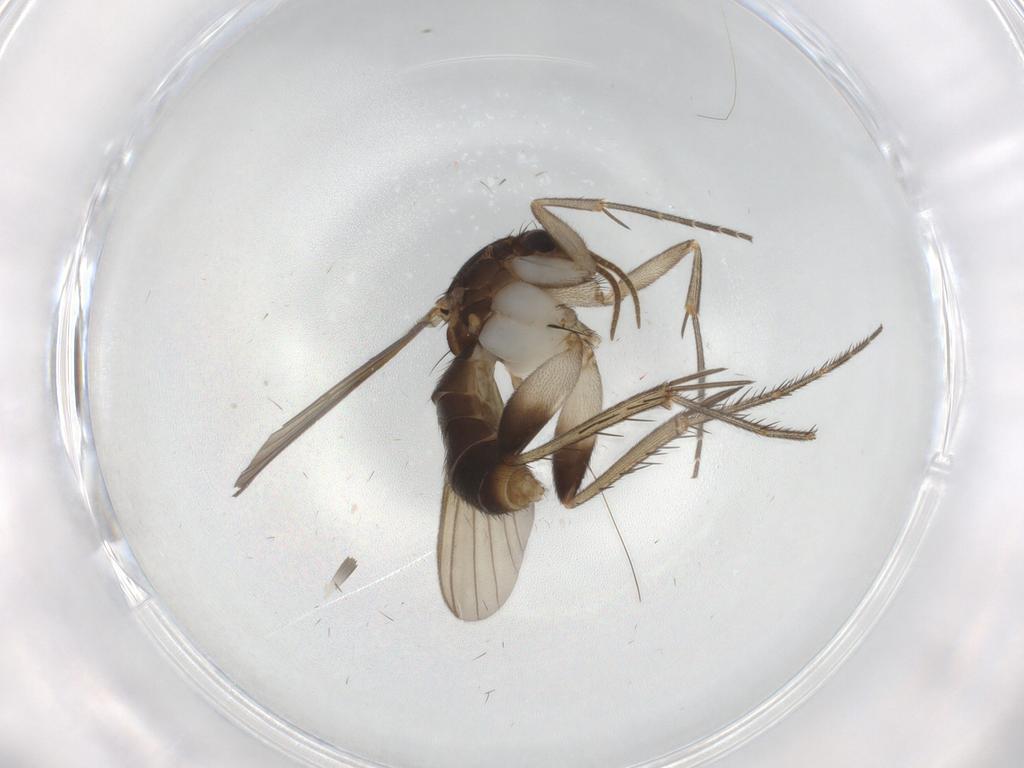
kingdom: Animalia
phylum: Arthropoda
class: Insecta
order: Diptera
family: Mycetophilidae
